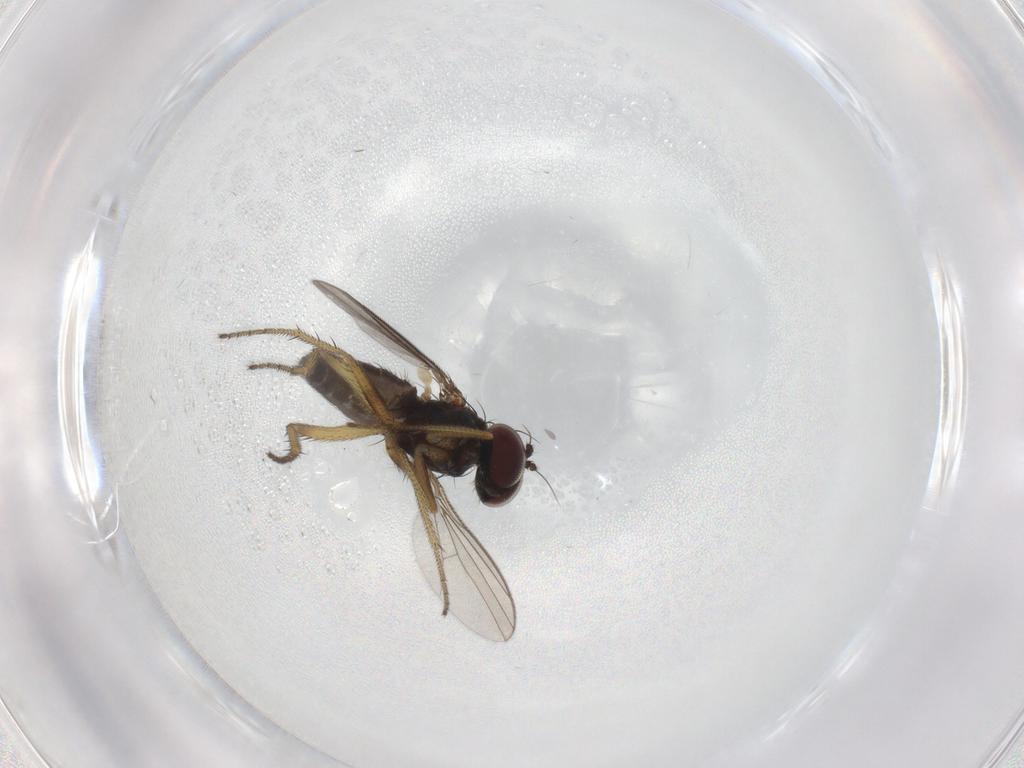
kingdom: Animalia
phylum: Arthropoda
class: Insecta
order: Diptera
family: Dolichopodidae
